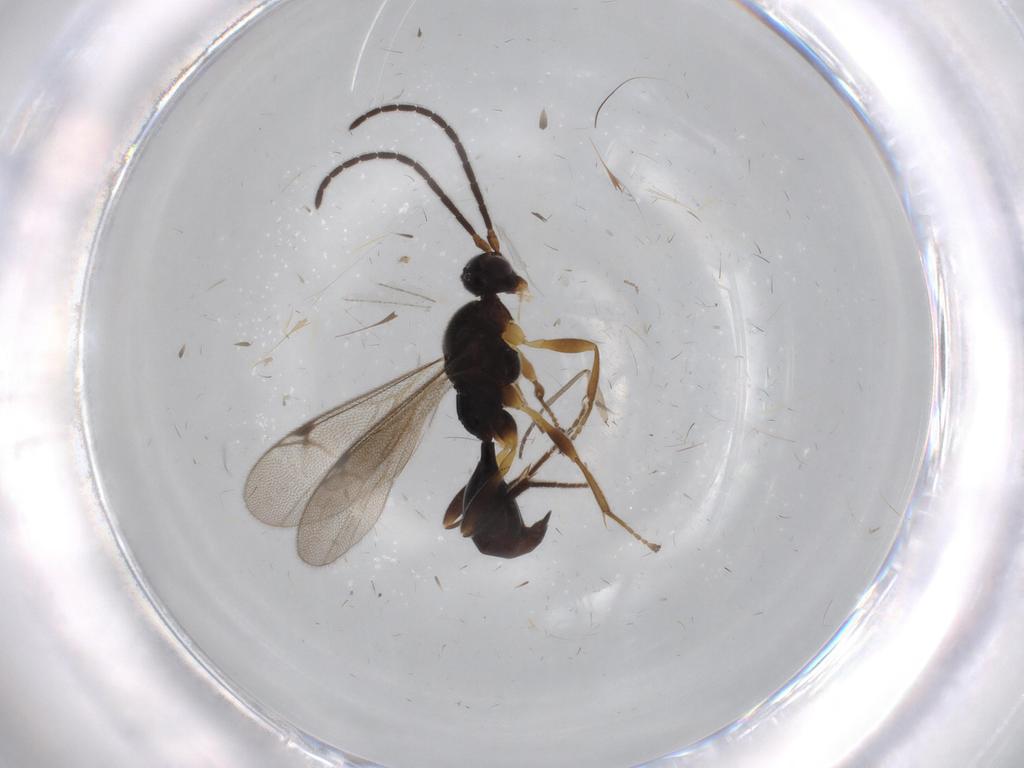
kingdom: Animalia
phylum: Arthropoda
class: Insecta
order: Hymenoptera
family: Proctotrupidae
